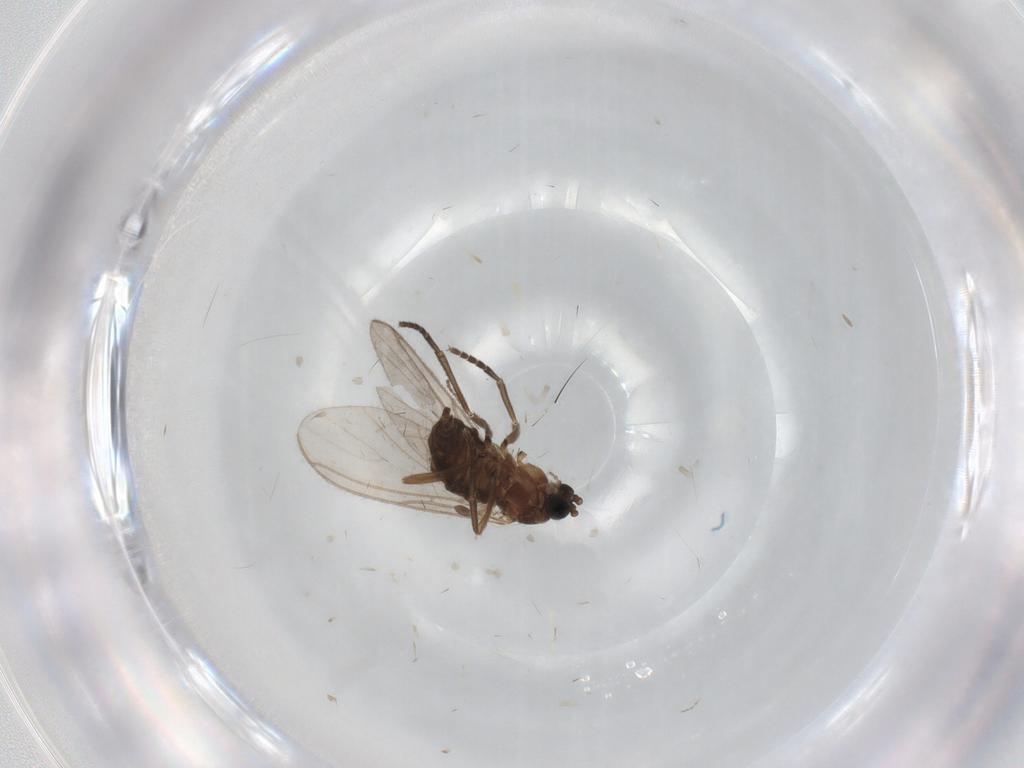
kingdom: Animalia
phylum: Arthropoda
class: Insecta
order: Diptera
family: Sciaridae
